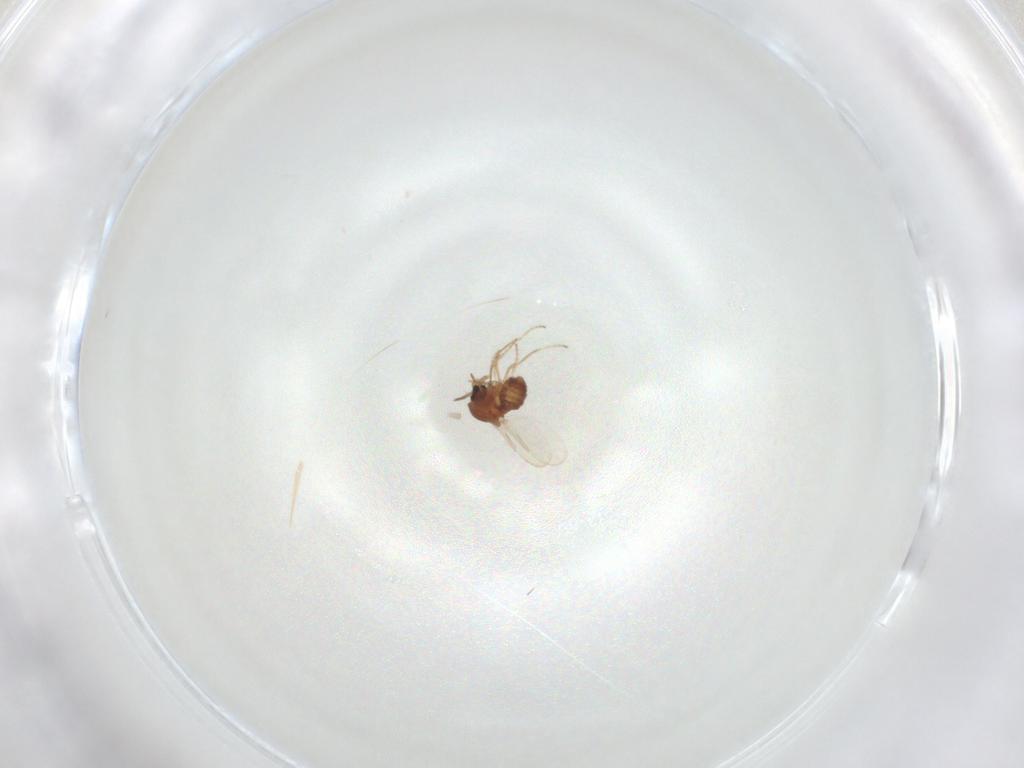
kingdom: Animalia
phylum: Arthropoda
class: Insecta
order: Diptera
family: Ceratopogonidae
